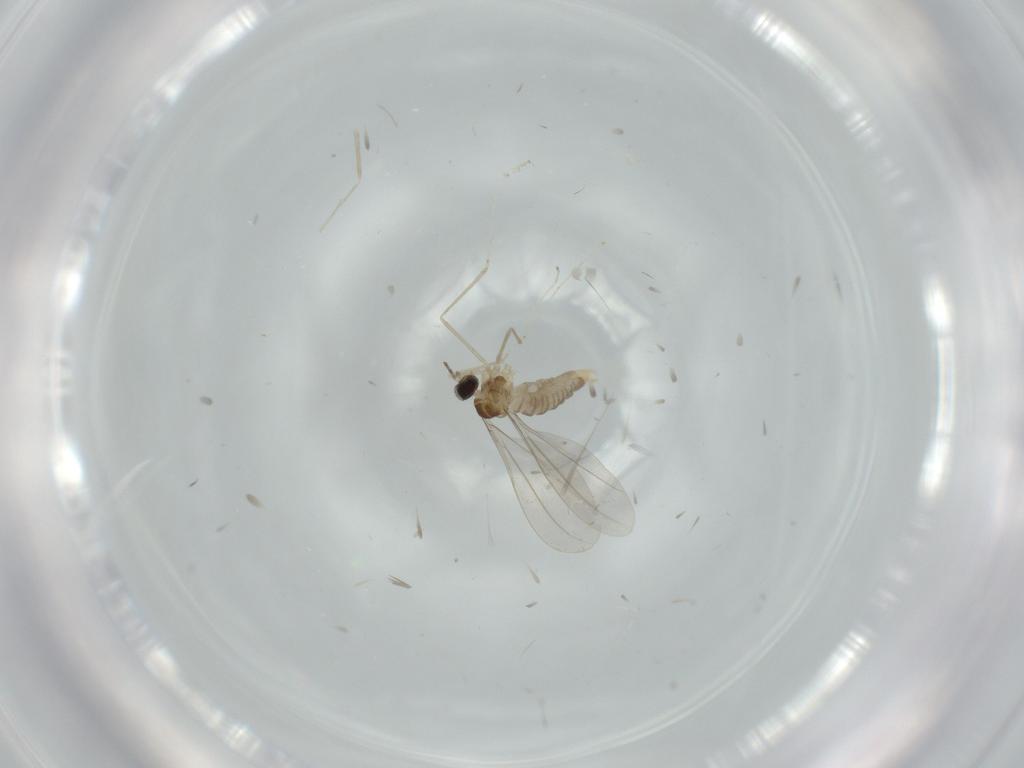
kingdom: Animalia
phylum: Arthropoda
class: Insecta
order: Diptera
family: Cecidomyiidae
